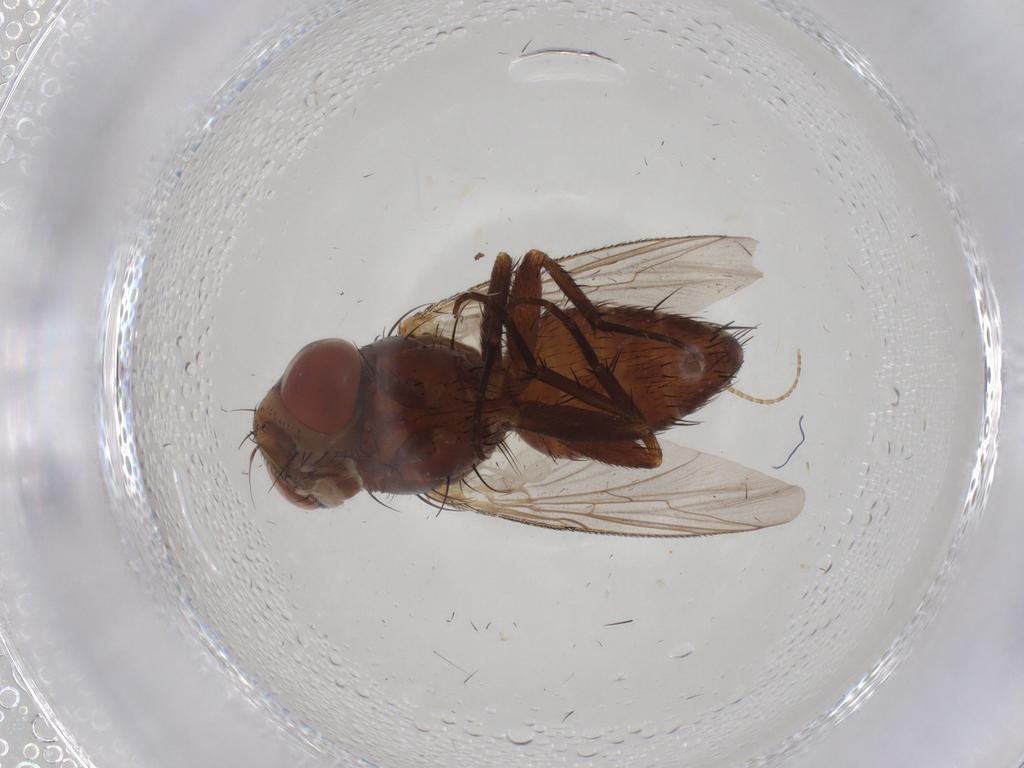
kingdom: Animalia
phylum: Arthropoda
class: Insecta
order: Diptera
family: Sarcophagidae
